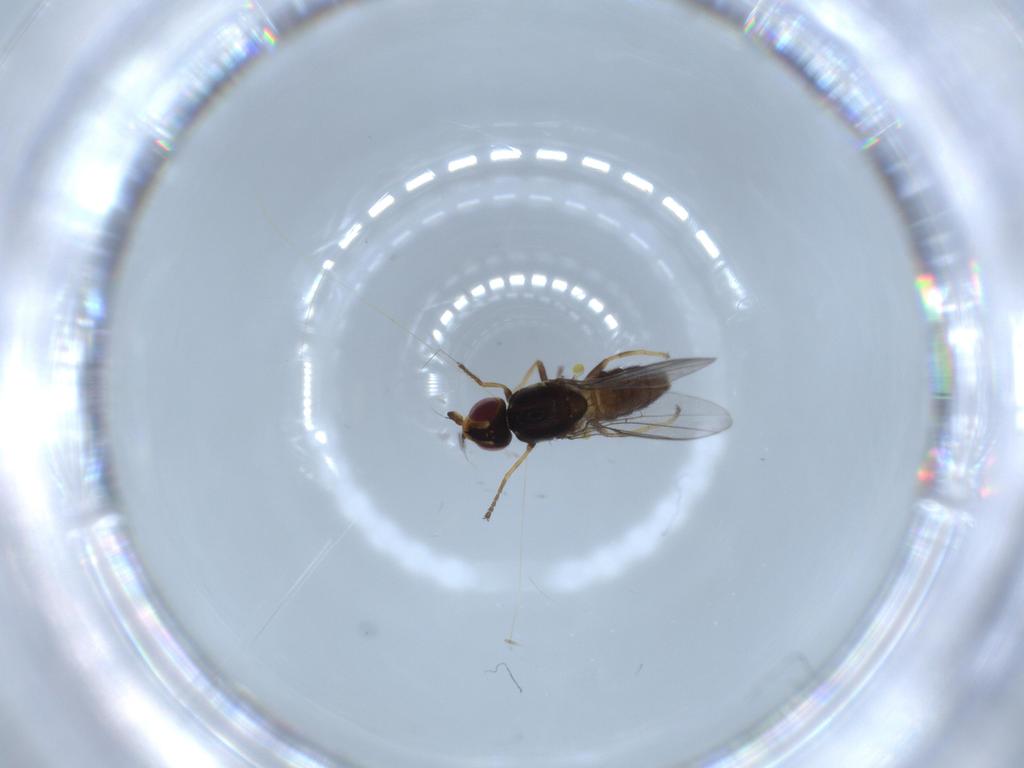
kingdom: Animalia
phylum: Arthropoda
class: Insecta
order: Diptera
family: Chloropidae
